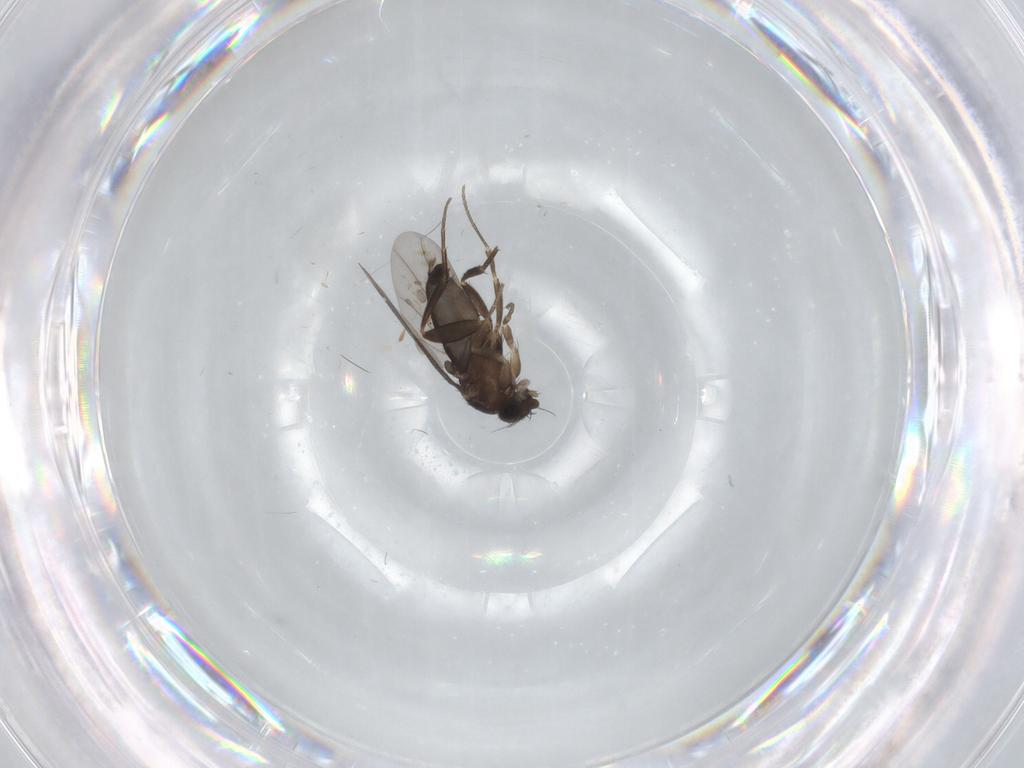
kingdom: Animalia
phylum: Arthropoda
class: Insecta
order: Diptera
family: Phoridae
